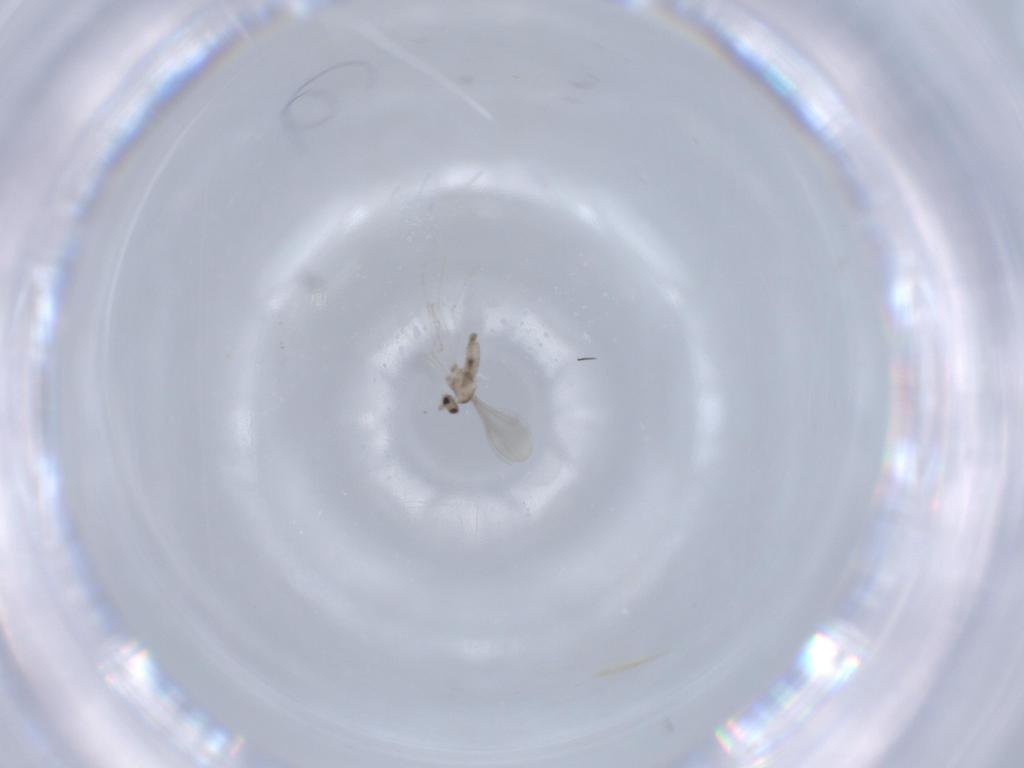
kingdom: Animalia
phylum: Arthropoda
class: Insecta
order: Diptera
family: Cecidomyiidae
